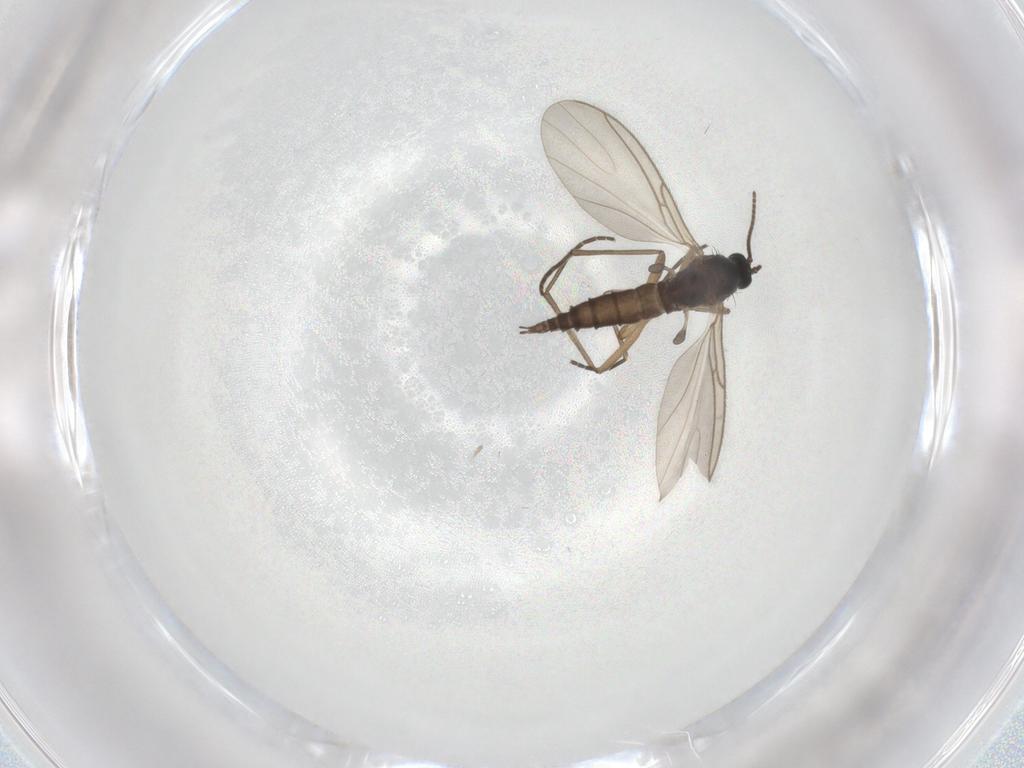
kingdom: Animalia
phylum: Arthropoda
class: Insecta
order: Diptera
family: Sciaridae
